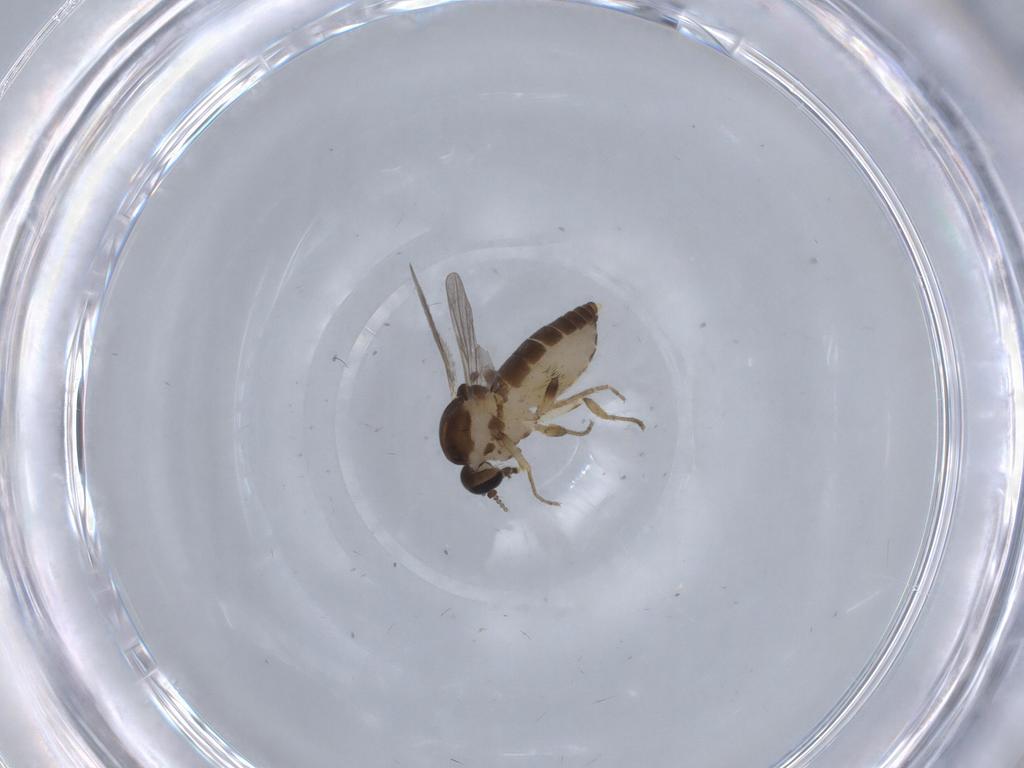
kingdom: Animalia
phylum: Arthropoda
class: Insecta
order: Diptera
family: Ceratopogonidae
